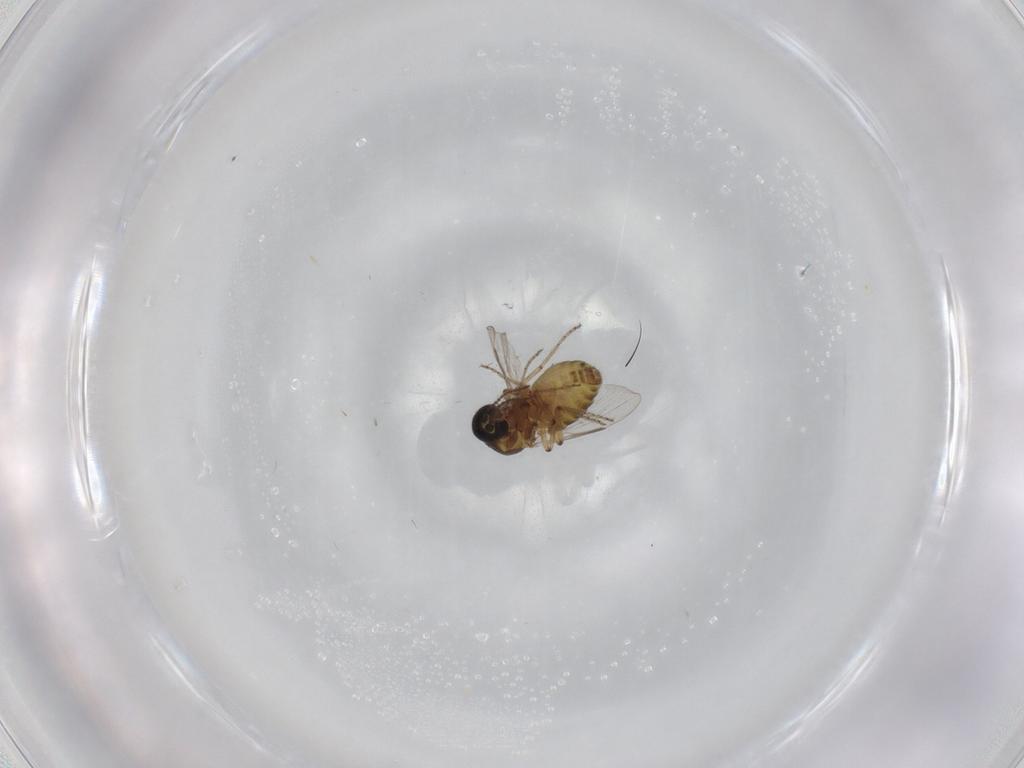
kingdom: Animalia
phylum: Arthropoda
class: Insecta
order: Diptera
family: Ceratopogonidae
